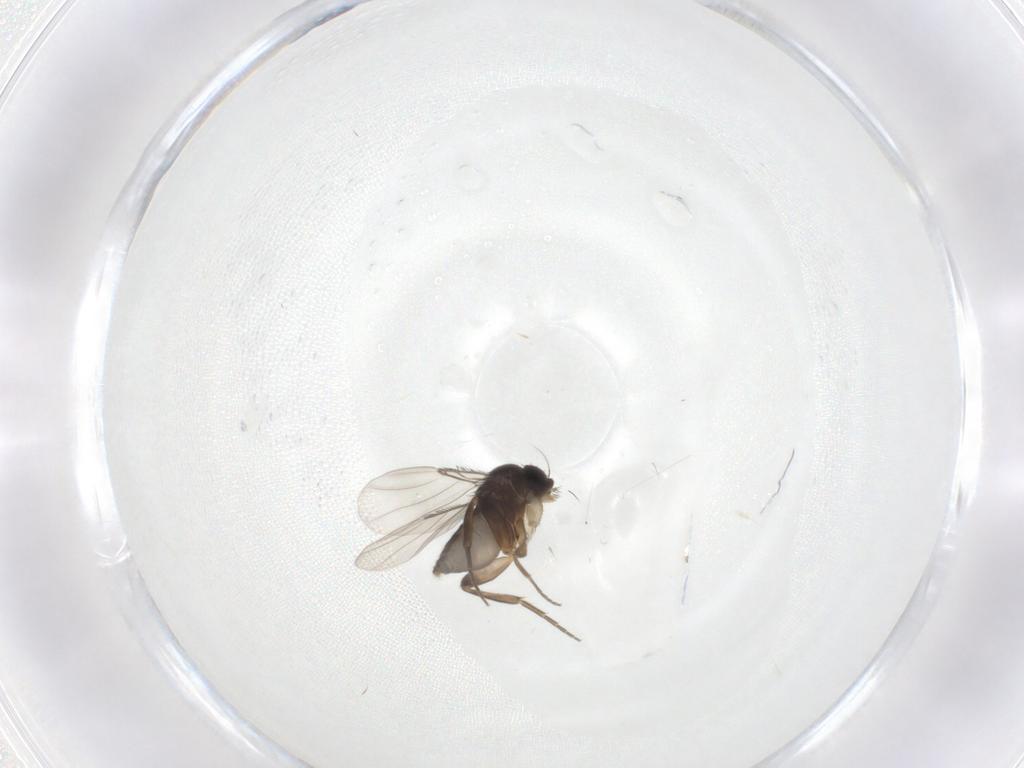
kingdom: Animalia
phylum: Arthropoda
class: Insecta
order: Diptera
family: Phoridae
